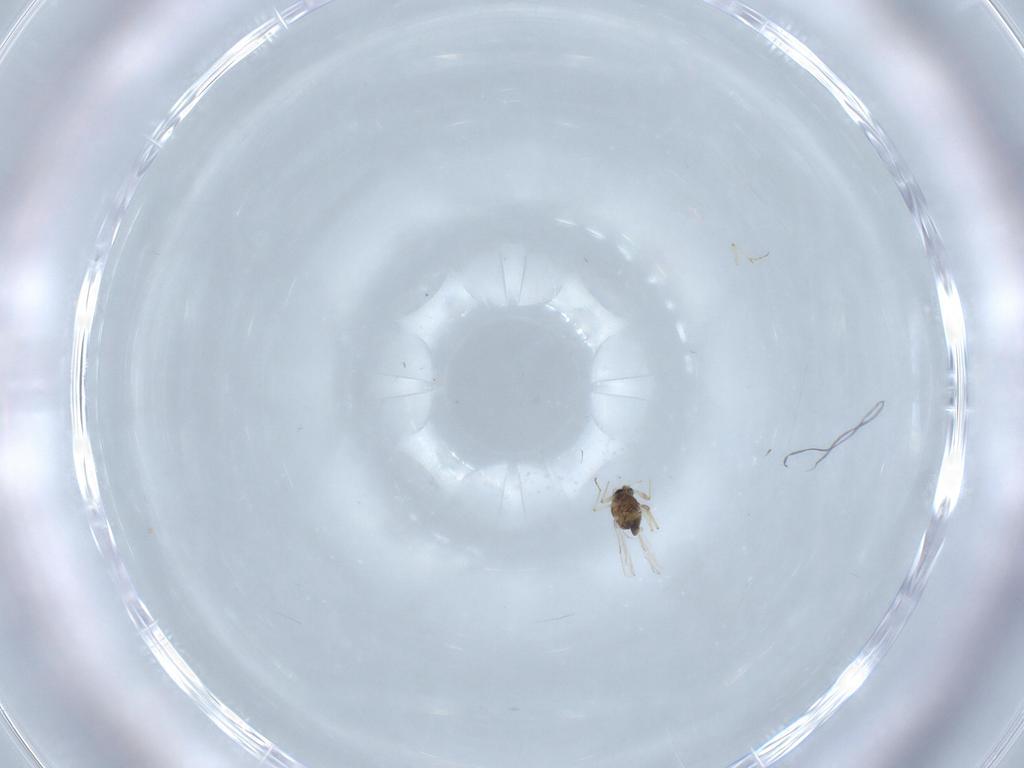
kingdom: Animalia
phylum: Arthropoda
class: Insecta
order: Diptera
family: Chironomidae
